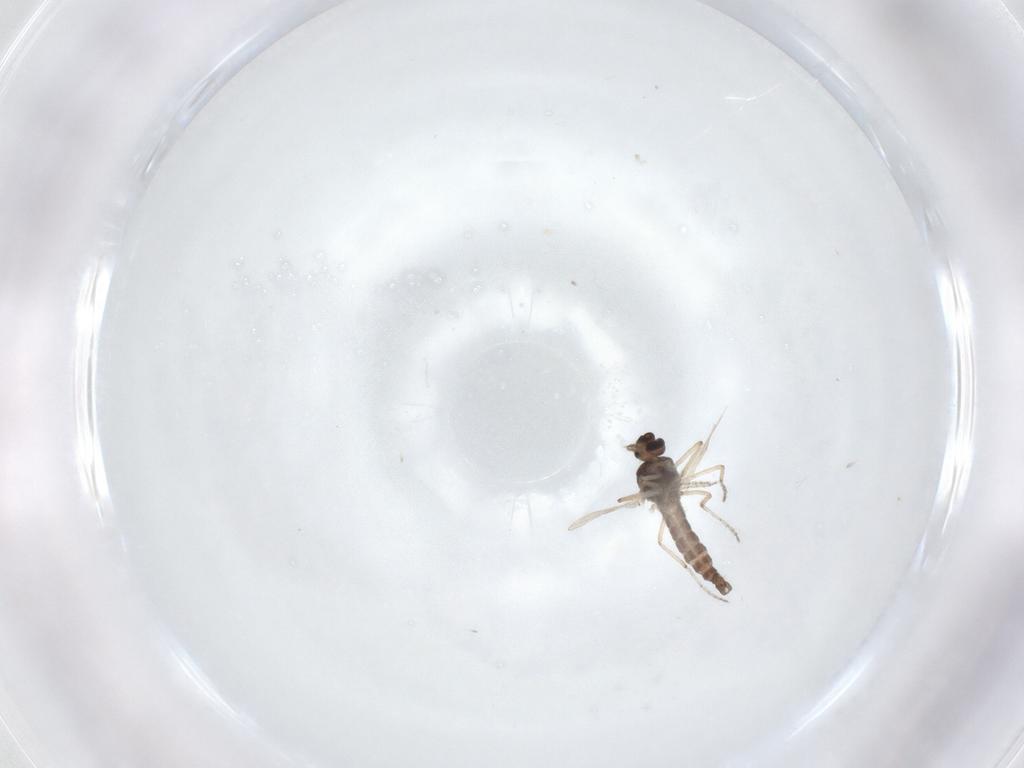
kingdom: Animalia
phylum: Arthropoda
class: Insecta
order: Diptera
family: Ceratopogonidae
